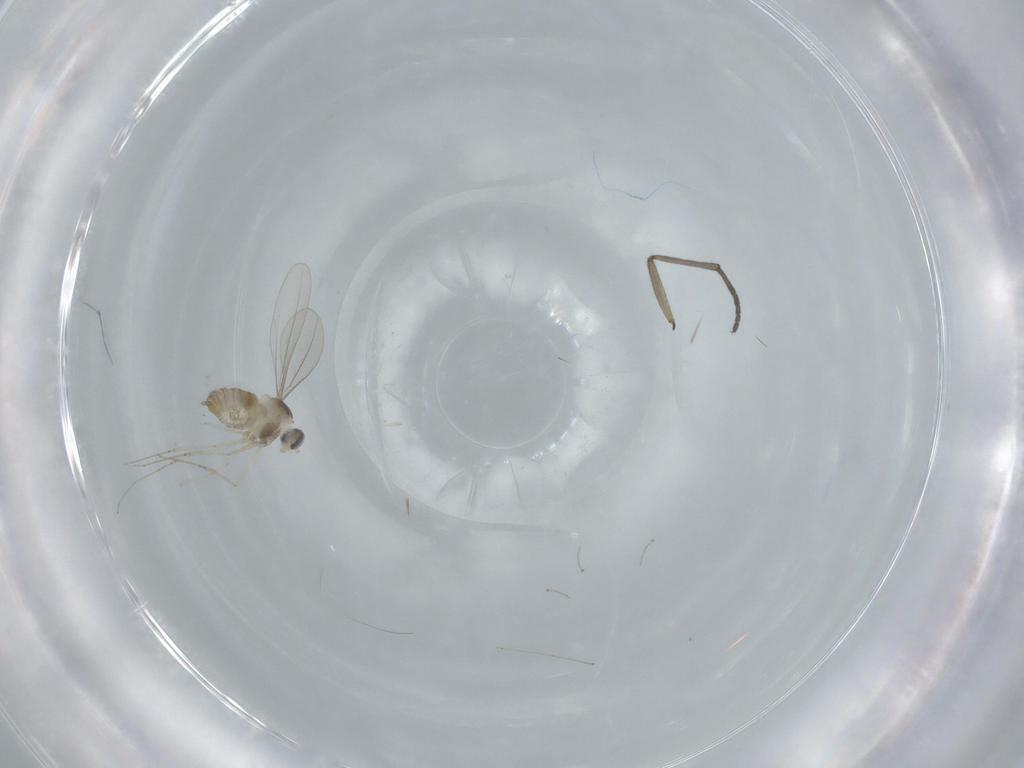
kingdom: Animalia
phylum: Arthropoda
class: Insecta
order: Diptera
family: Cecidomyiidae
